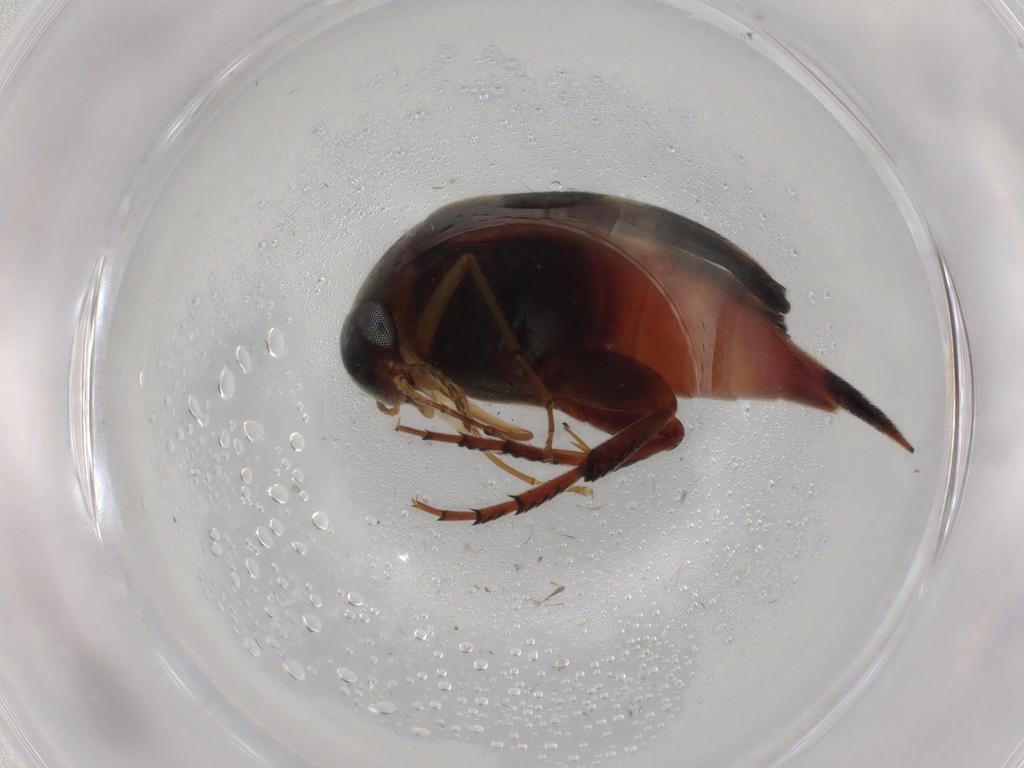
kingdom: Animalia
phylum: Arthropoda
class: Insecta
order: Coleoptera
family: Mordellidae
